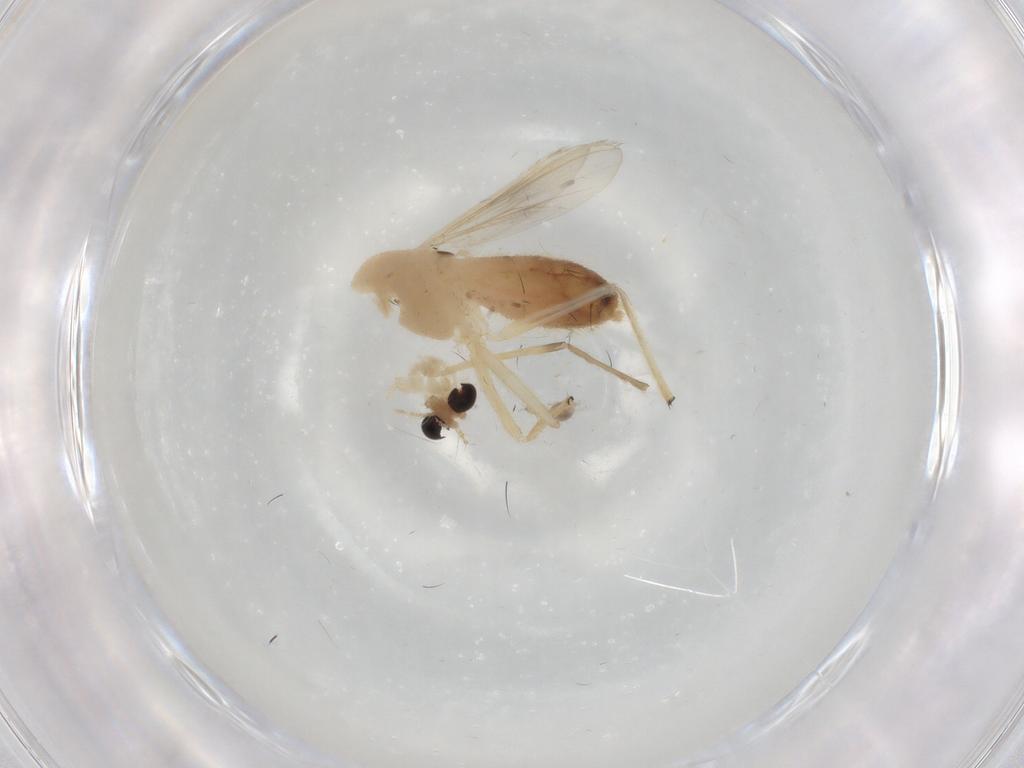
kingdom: Animalia
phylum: Arthropoda
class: Insecta
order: Diptera
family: Chironomidae
